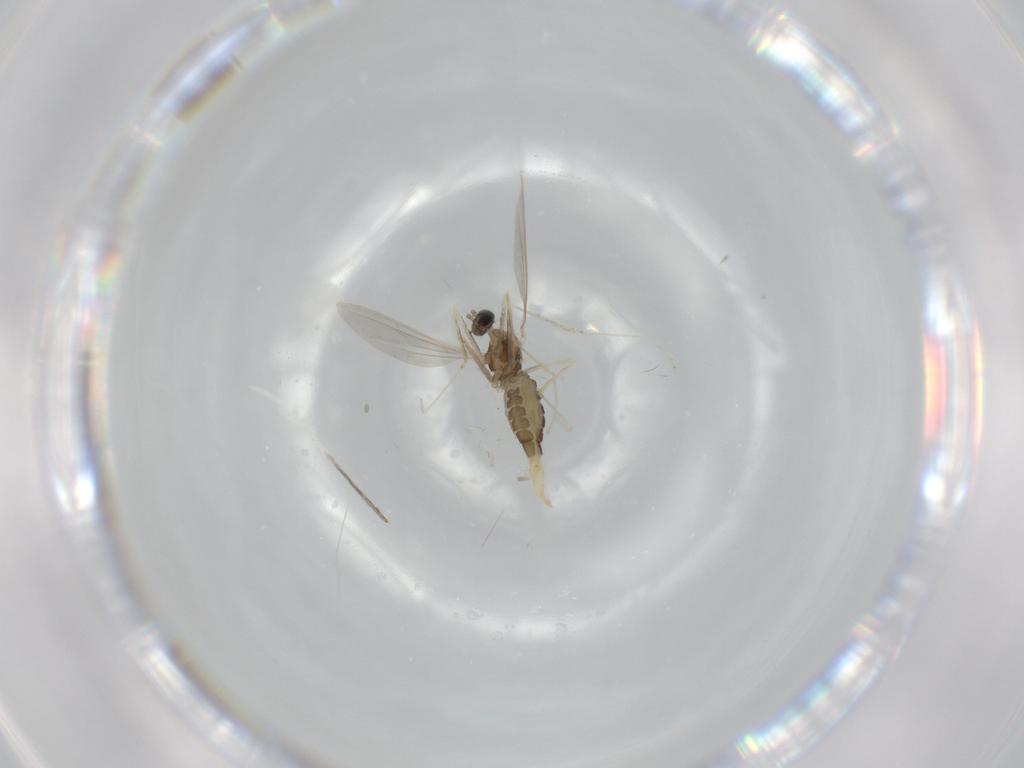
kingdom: Animalia
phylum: Arthropoda
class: Insecta
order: Diptera
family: Cecidomyiidae
